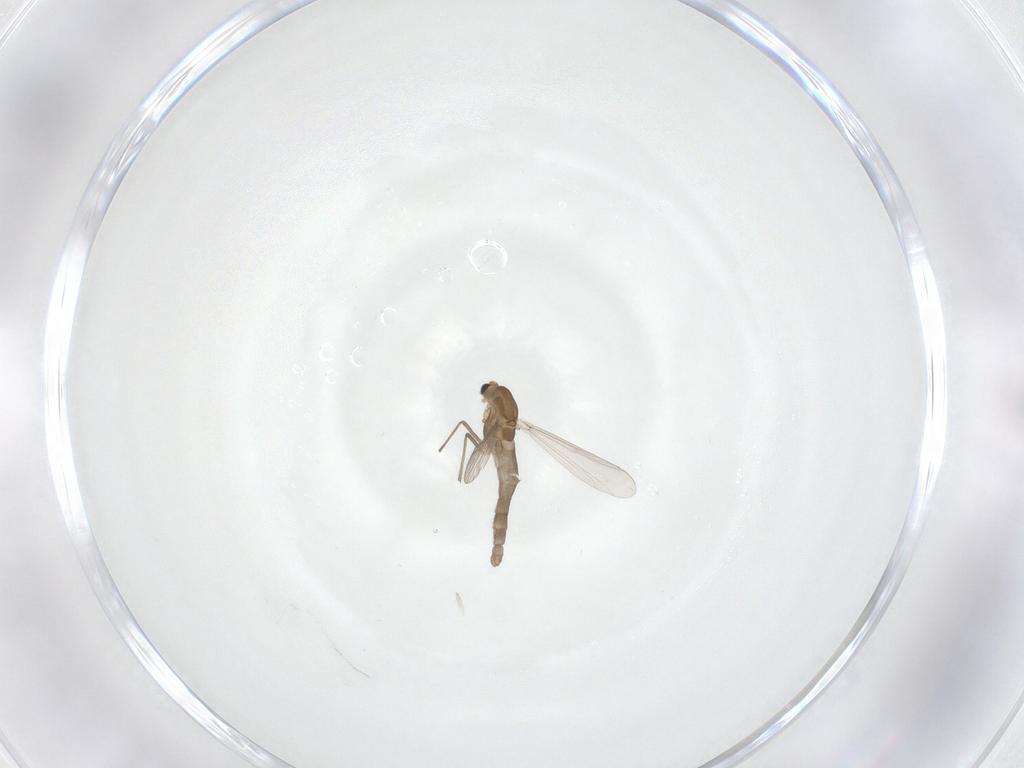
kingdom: Animalia
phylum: Arthropoda
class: Insecta
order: Diptera
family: Chironomidae
